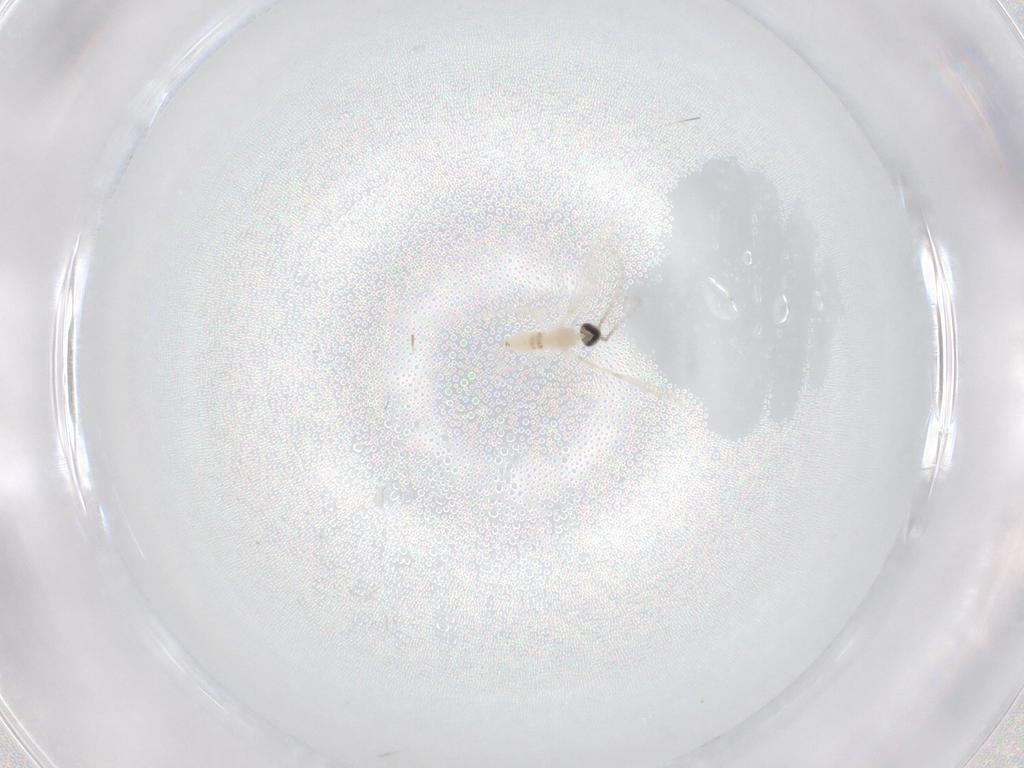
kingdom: Animalia
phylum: Arthropoda
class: Insecta
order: Diptera
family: Cecidomyiidae
